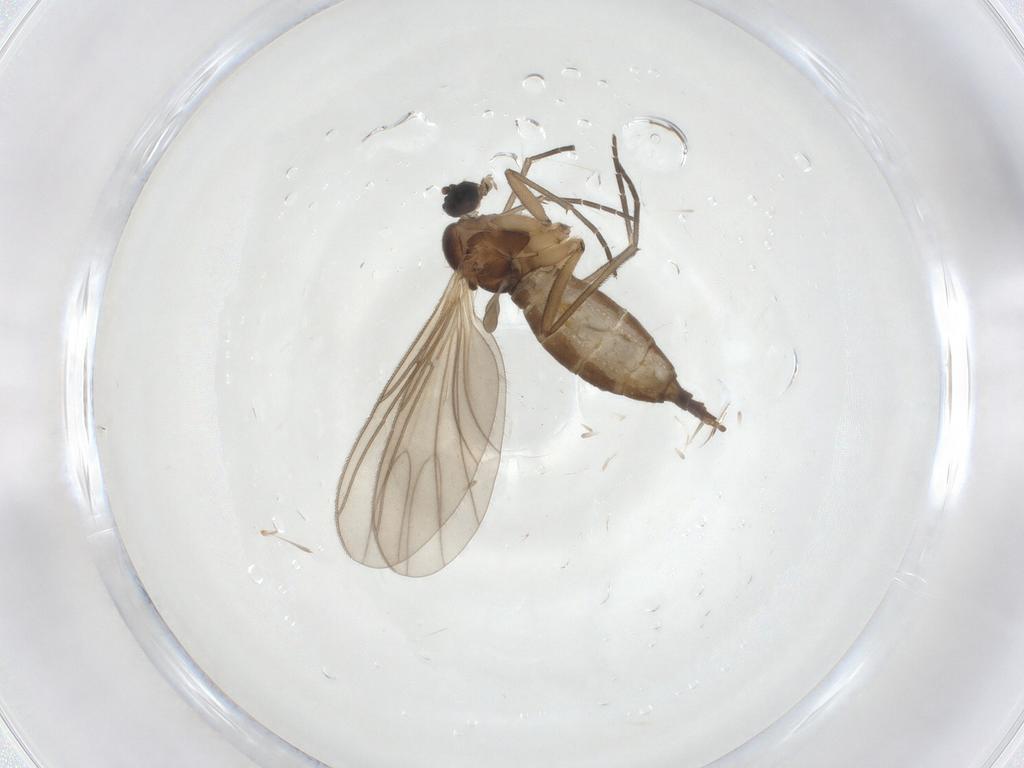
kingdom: Animalia
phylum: Arthropoda
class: Insecta
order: Diptera
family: Sciaridae
